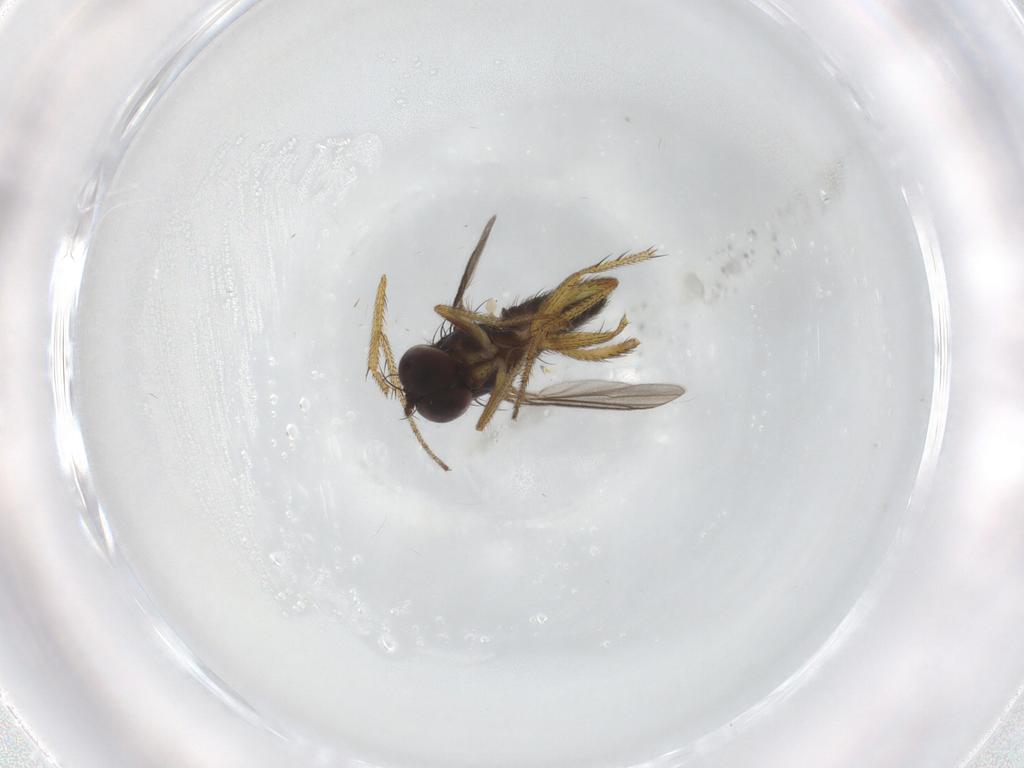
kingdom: Animalia
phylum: Arthropoda
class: Insecta
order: Diptera
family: Dolichopodidae
